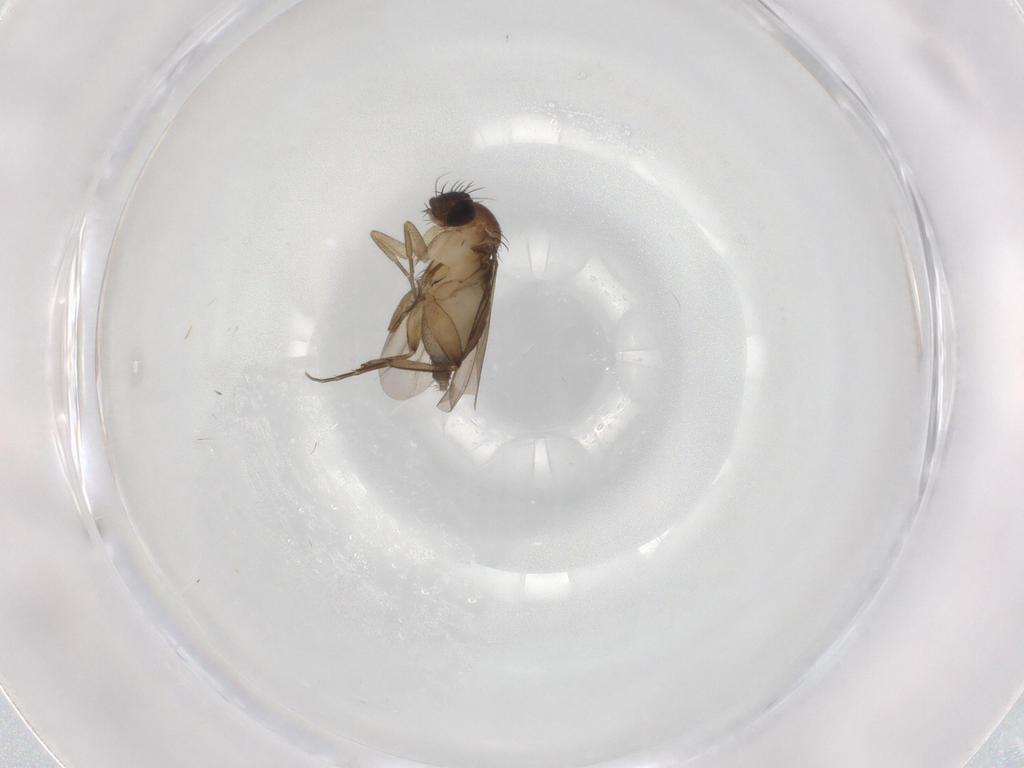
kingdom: Animalia
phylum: Arthropoda
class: Insecta
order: Diptera
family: Phoridae
